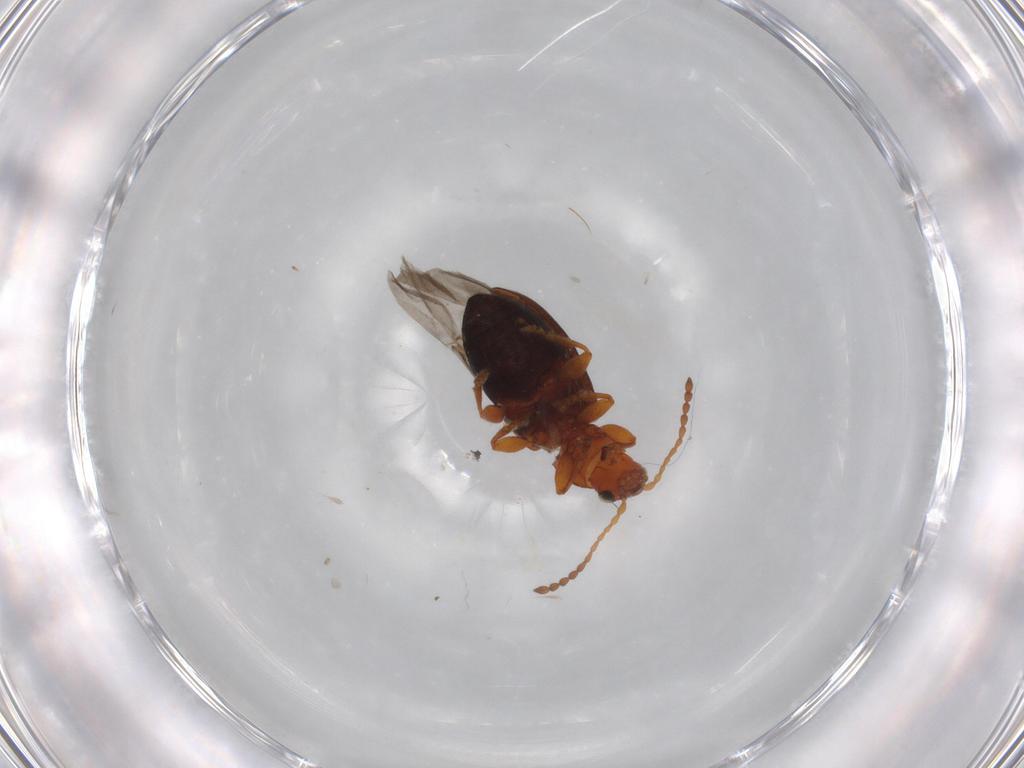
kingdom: Animalia
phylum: Arthropoda
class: Insecta
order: Coleoptera
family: Chrysomelidae
